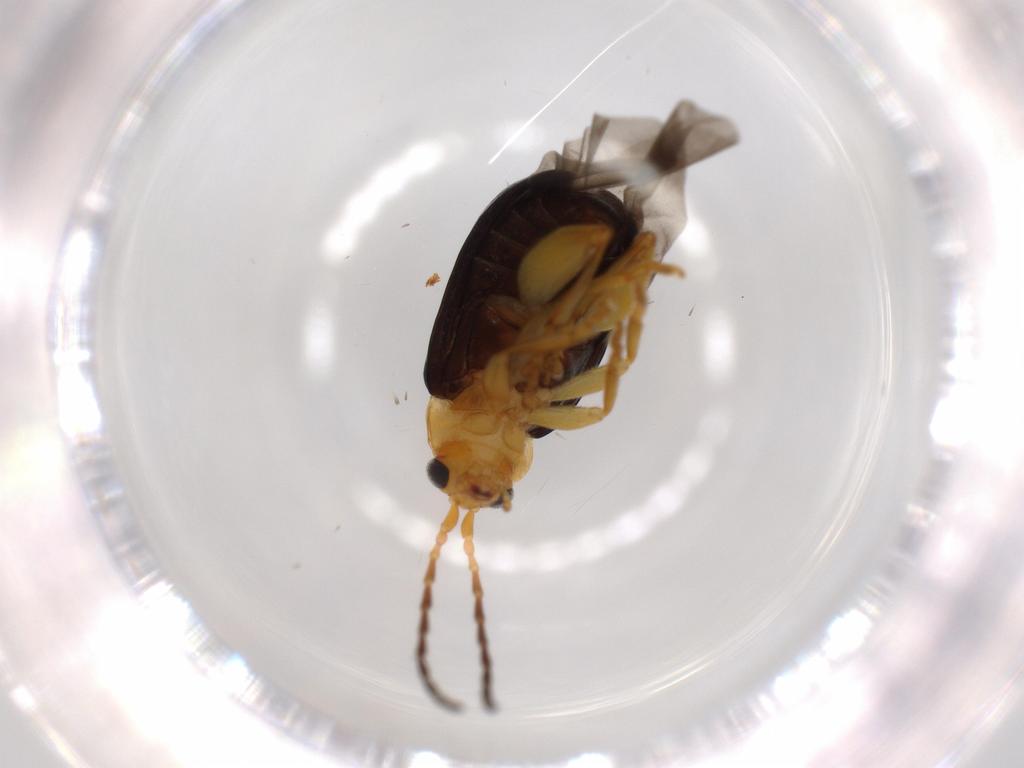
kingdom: Animalia
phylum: Arthropoda
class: Insecta
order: Coleoptera
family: Chrysomelidae
